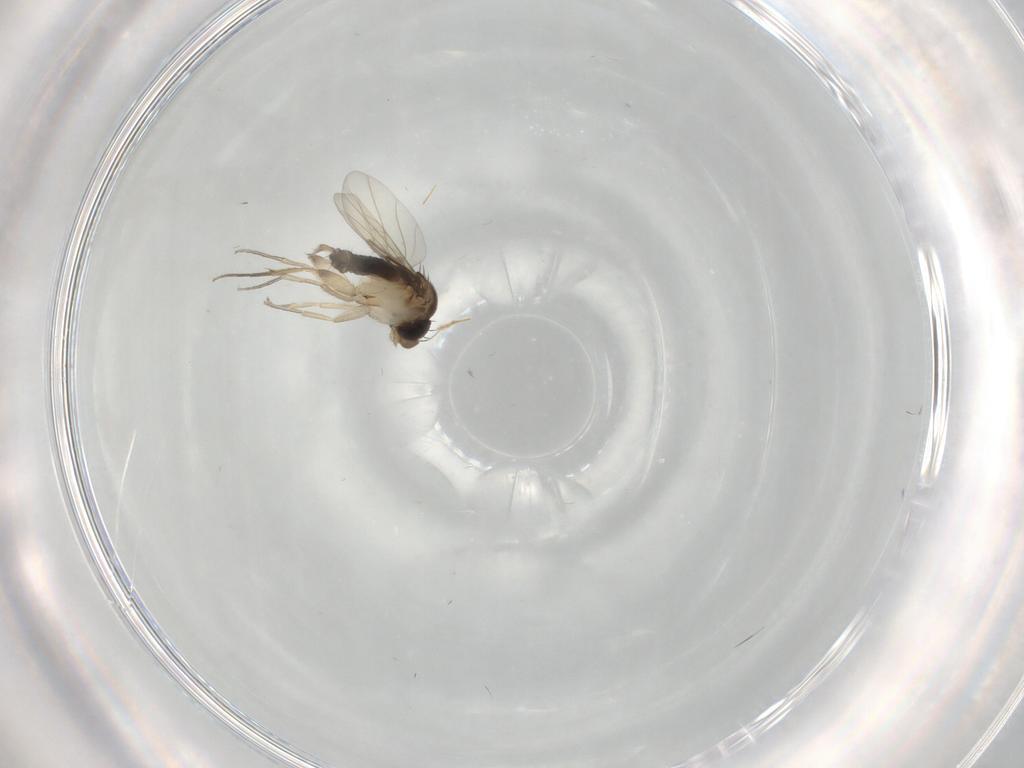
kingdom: Animalia
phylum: Arthropoda
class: Insecta
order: Diptera
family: Cecidomyiidae
